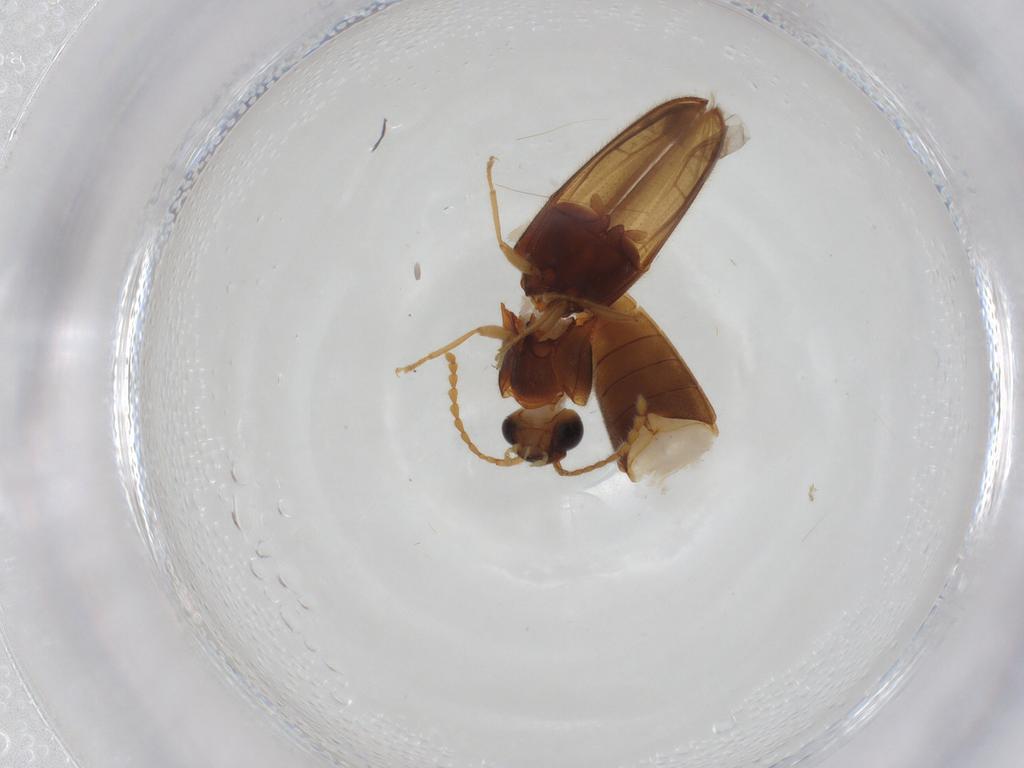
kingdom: Animalia
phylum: Arthropoda
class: Insecta
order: Coleoptera
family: Elateridae
